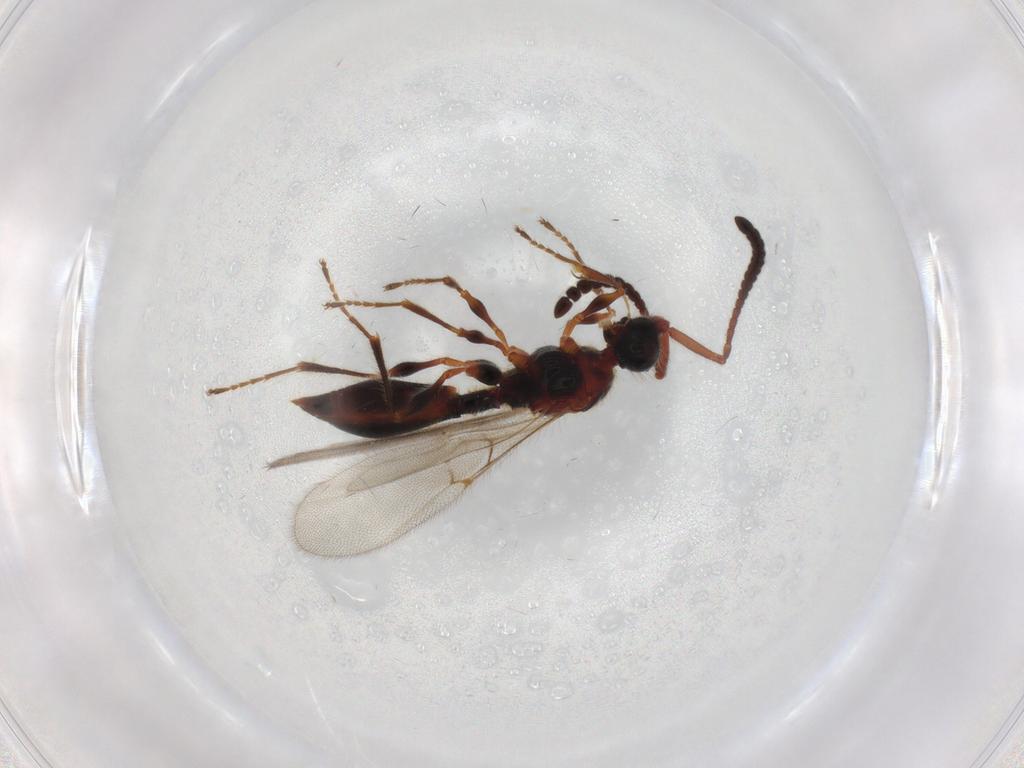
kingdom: Animalia
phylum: Arthropoda
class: Insecta
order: Hymenoptera
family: Diapriidae
